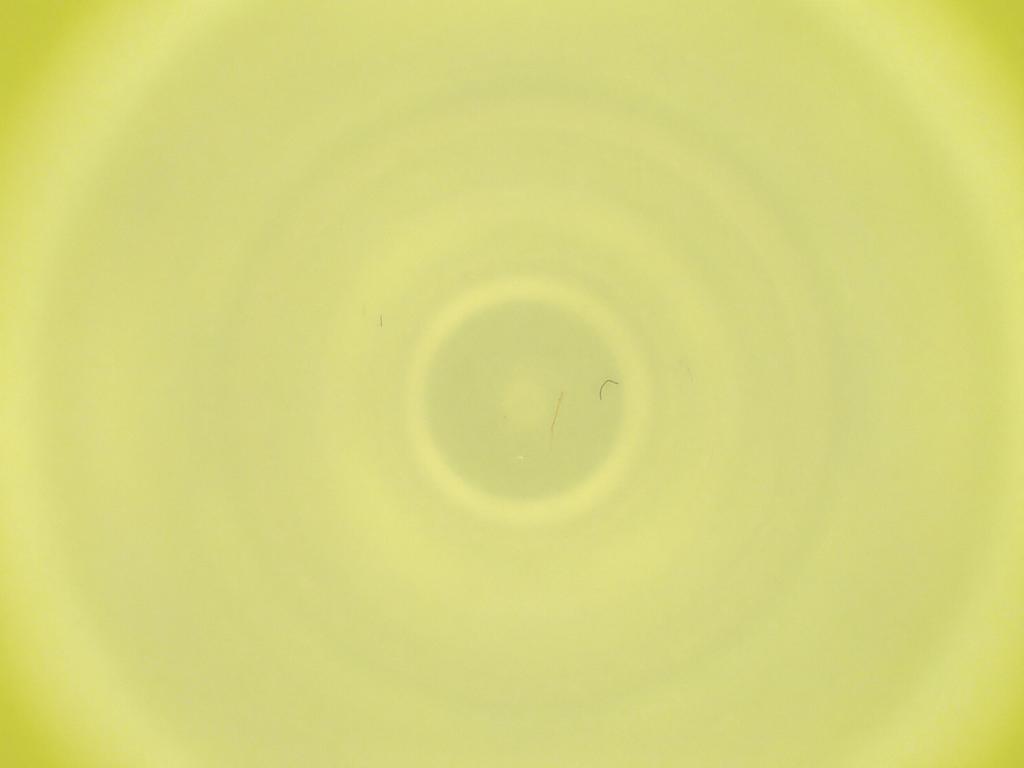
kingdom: Animalia
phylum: Arthropoda
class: Insecta
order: Diptera
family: Cecidomyiidae
